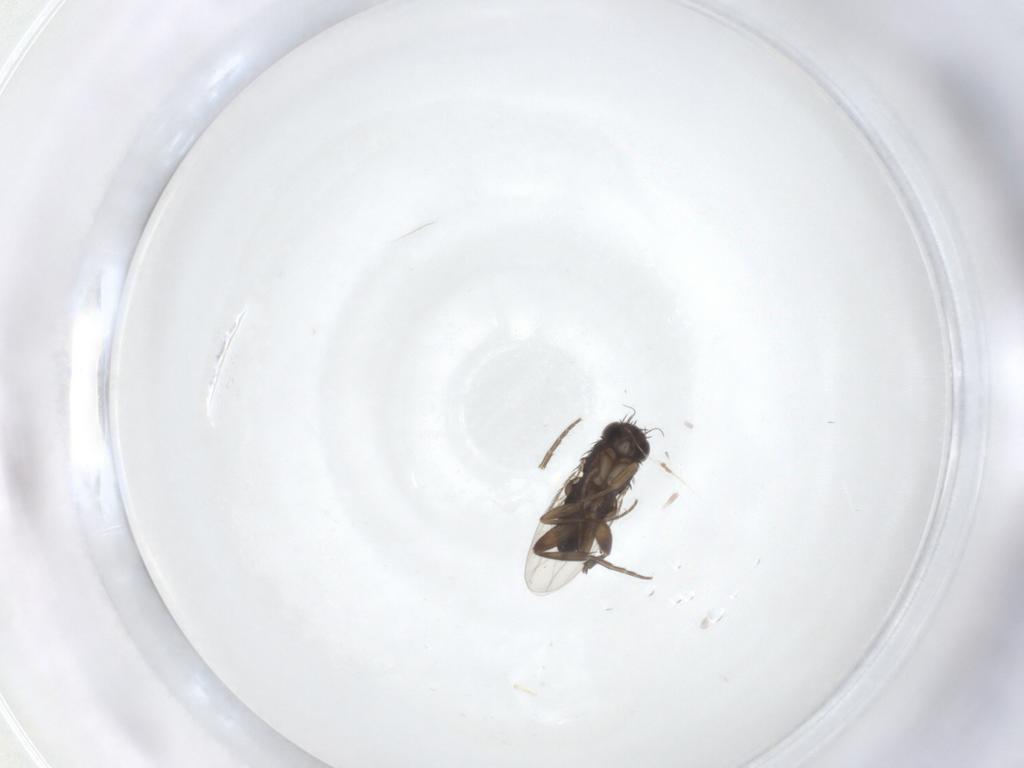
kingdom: Animalia
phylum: Arthropoda
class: Insecta
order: Diptera
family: Phoridae
